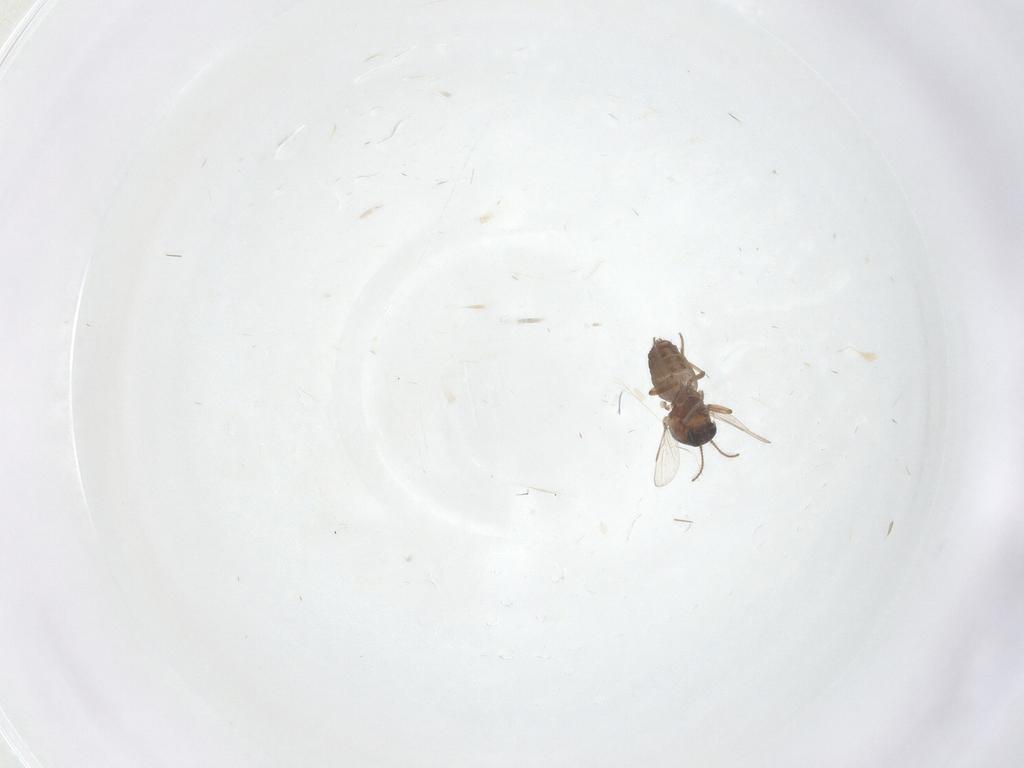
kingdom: Animalia
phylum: Arthropoda
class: Insecta
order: Diptera
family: Ceratopogonidae
